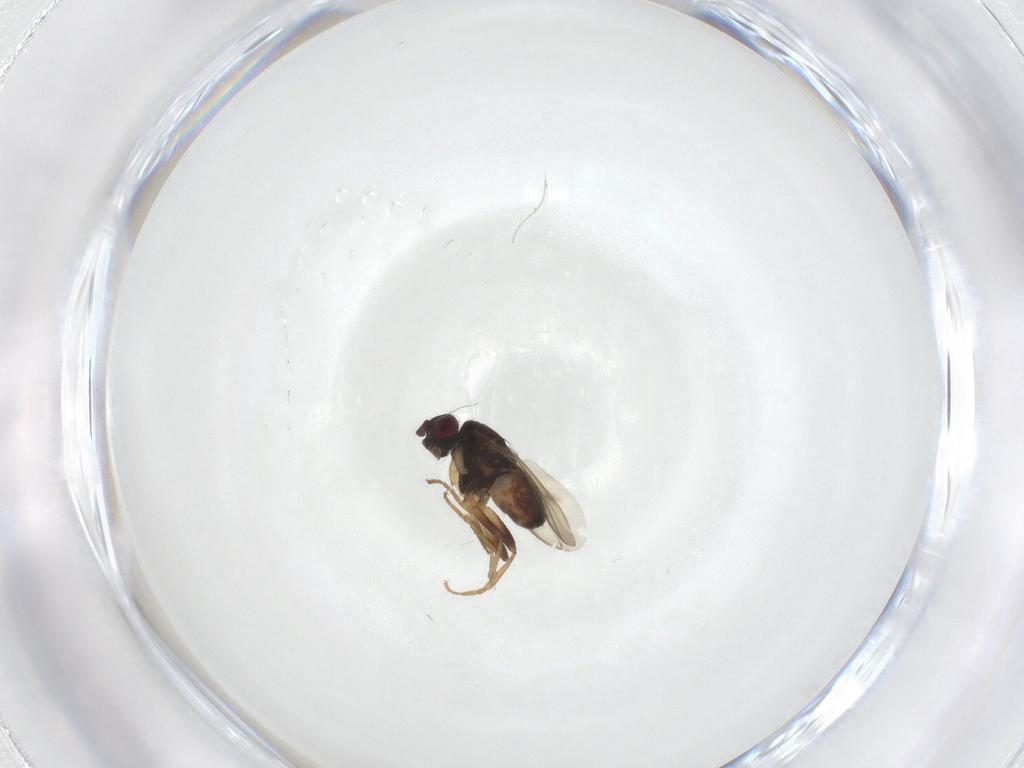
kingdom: Animalia
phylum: Arthropoda
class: Insecta
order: Diptera
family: Sphaeroceridae
